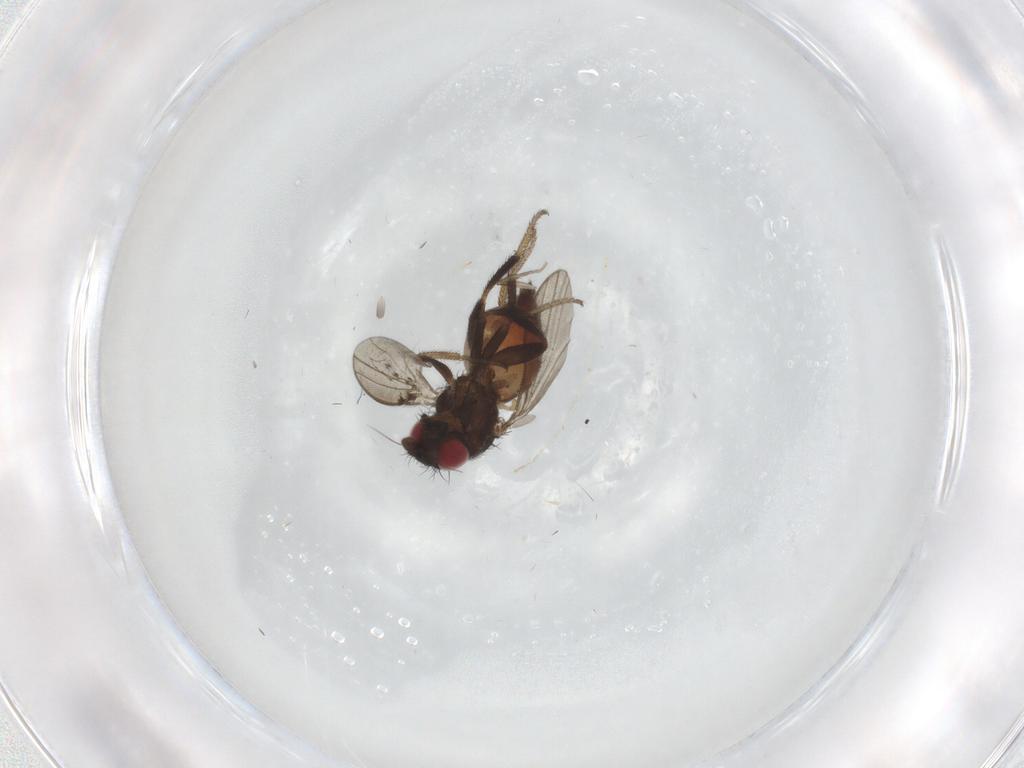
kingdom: Animalia
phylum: Arthropoda
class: Insecta
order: Diptera
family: Milichiidae
